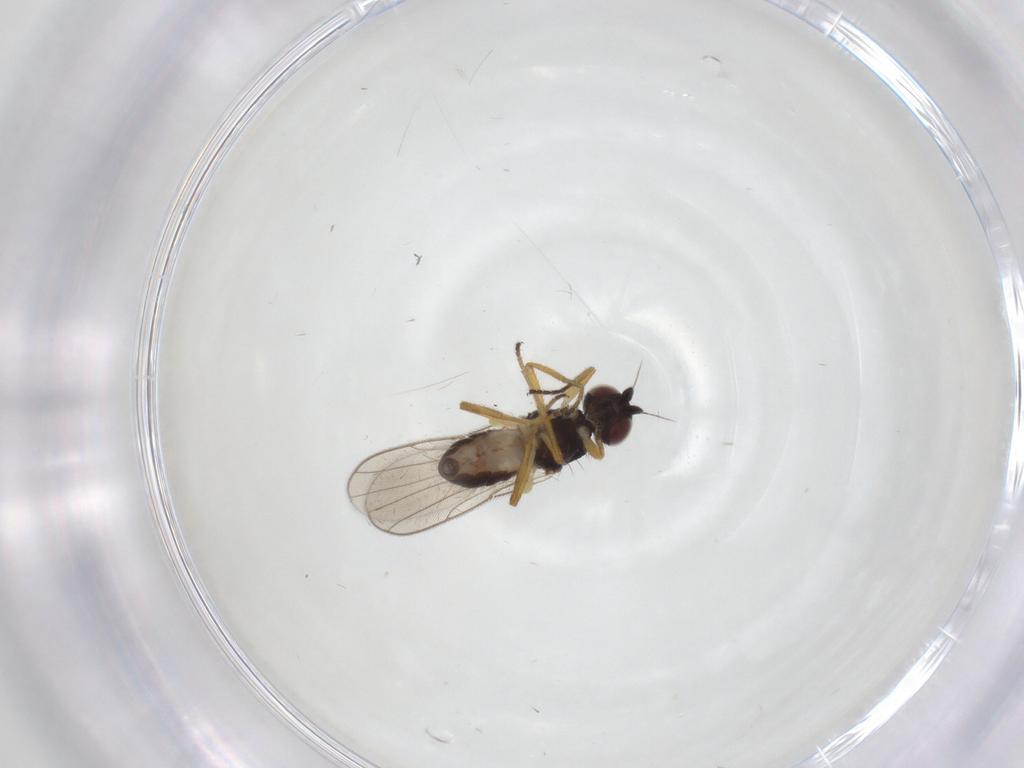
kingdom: Animalia
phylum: Arthropoda
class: Insecta
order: Diptera
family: Chloropidae
